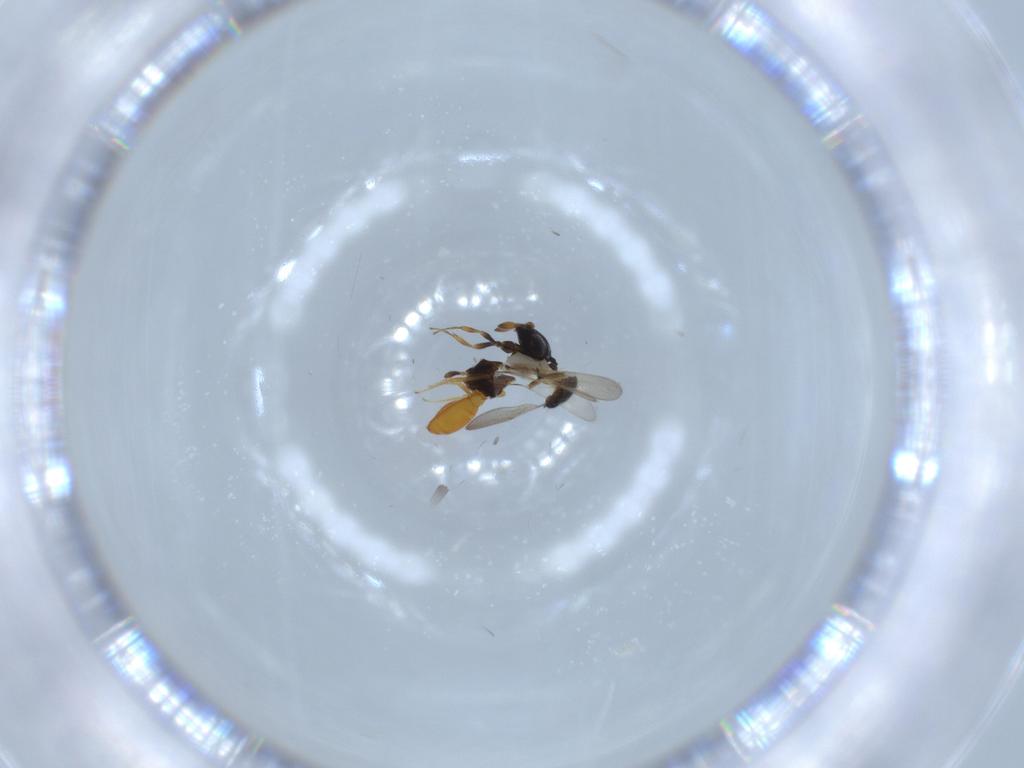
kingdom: Animalia
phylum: Arthropoda
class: Insecta
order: Hymenoptera
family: Scelionidae
